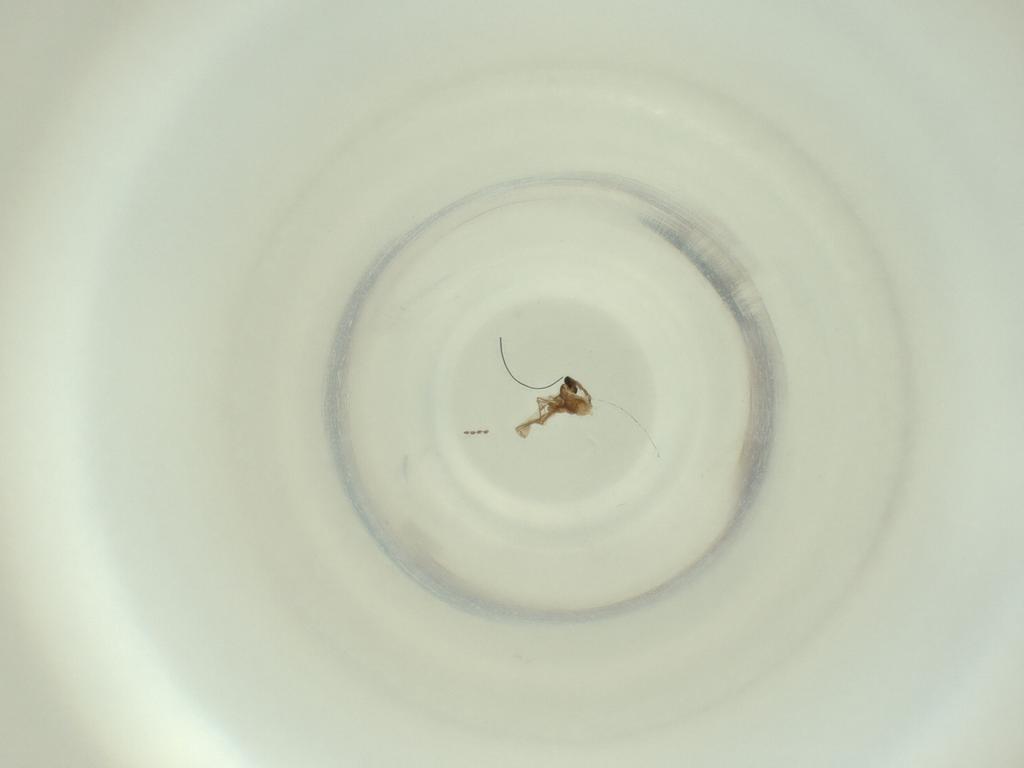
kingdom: Animalia
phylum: Arthropoda
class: Insecta
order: Diptera
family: Cecidomyiidae
